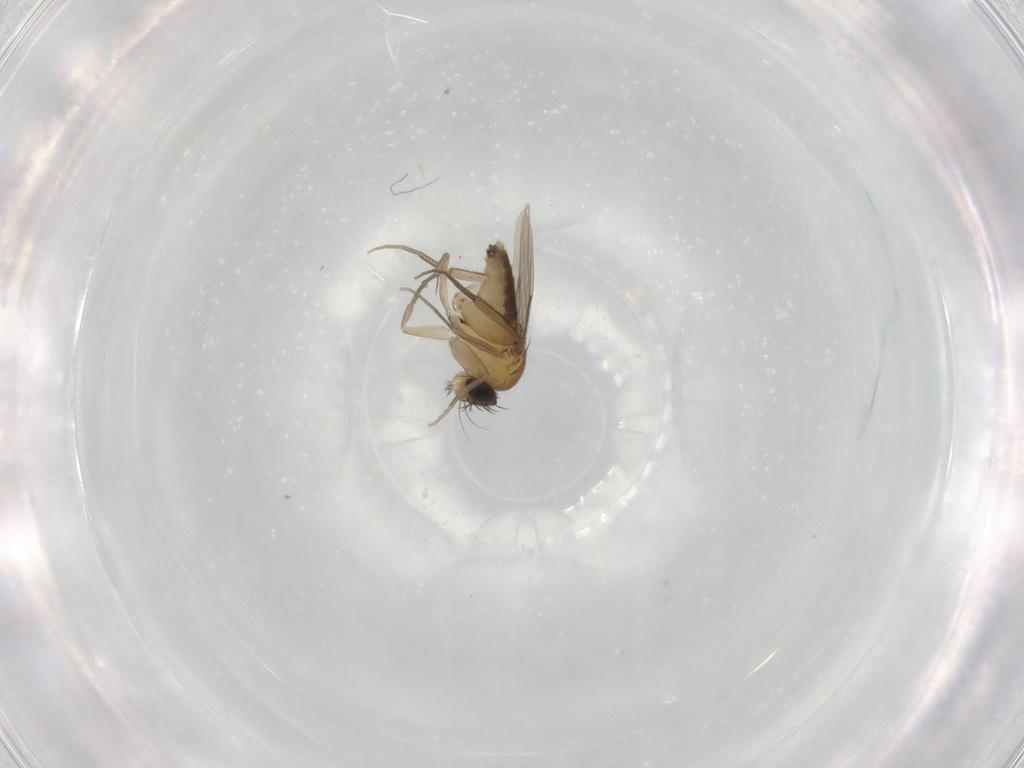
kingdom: Animalia
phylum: Arthropoda
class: Insecta
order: Diptera
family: Phoridae
